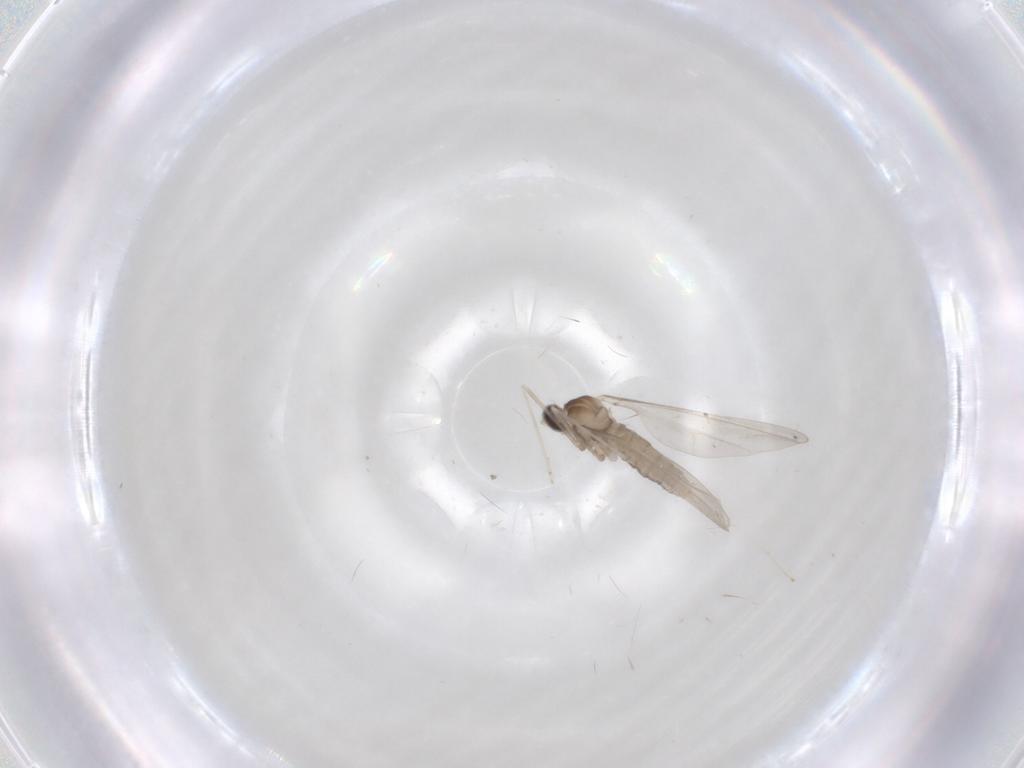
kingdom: Animalia
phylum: Arthropoda
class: Insecta
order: Diptera
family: Cecidomyiidae
